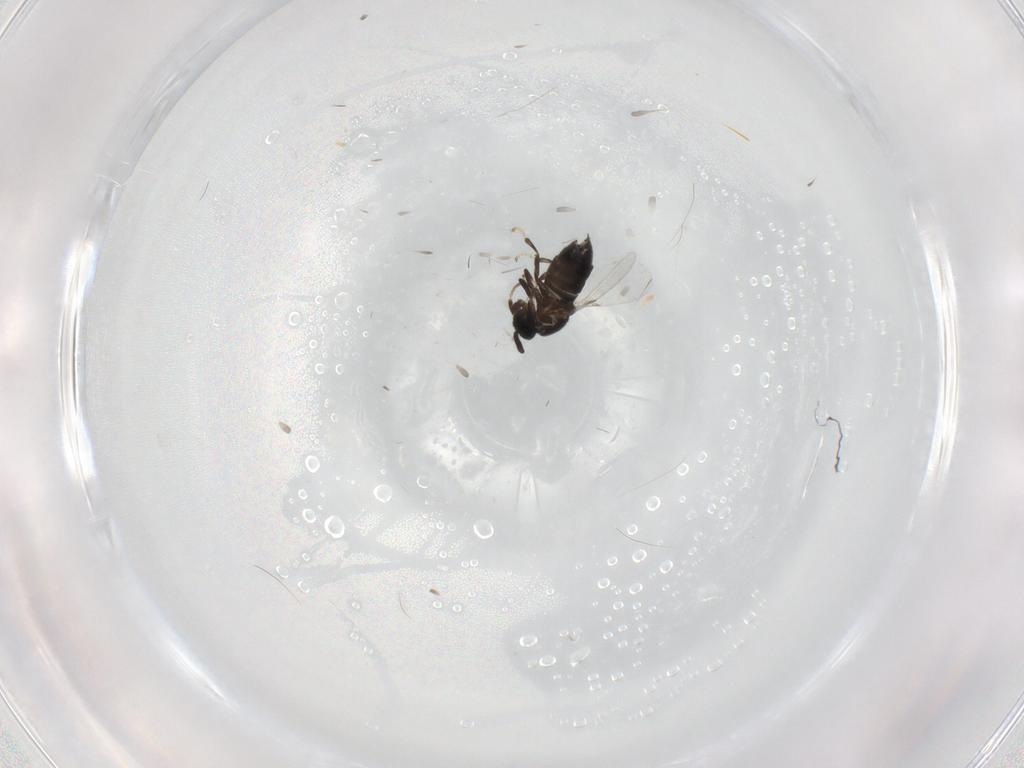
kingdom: Animalia
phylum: Arthropoda
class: Insecta
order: Diptera
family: Scatopsidae
